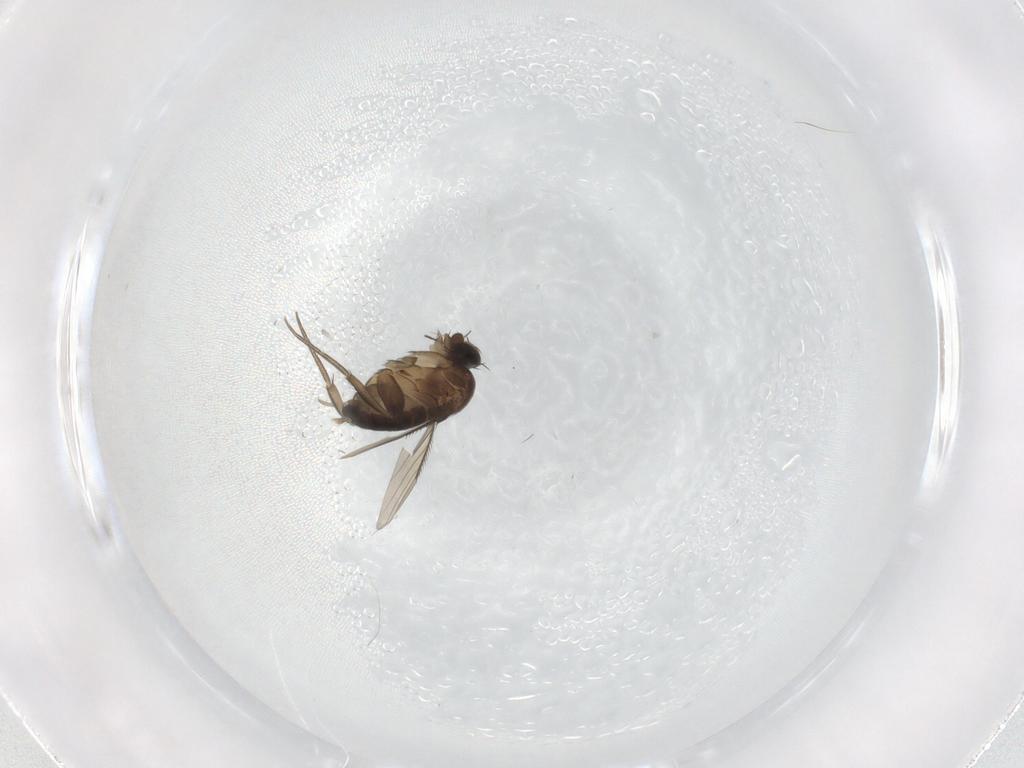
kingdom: Animalia
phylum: Arthropoda
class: Insecta
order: Diptera
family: Phoridae
